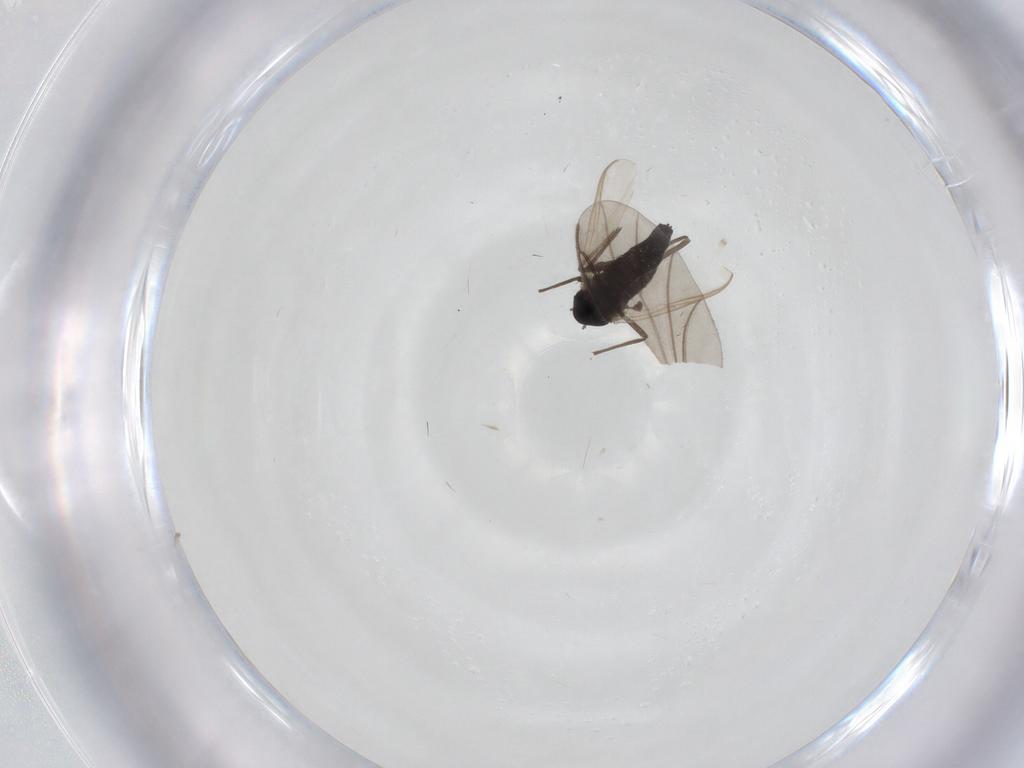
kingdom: Animalia
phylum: Arthropoda
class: Insecta
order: Diptera
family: Chironomidae
